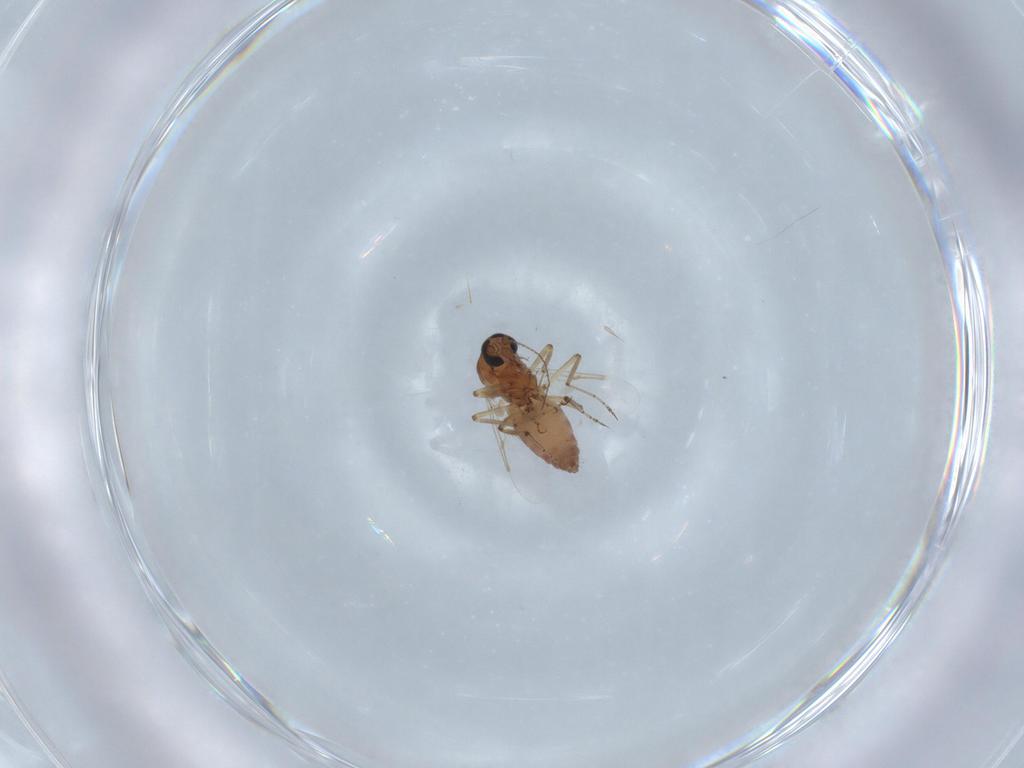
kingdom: Animalia
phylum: Arthropoda
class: Insecta
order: Diptera
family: Ceratopogonidae
